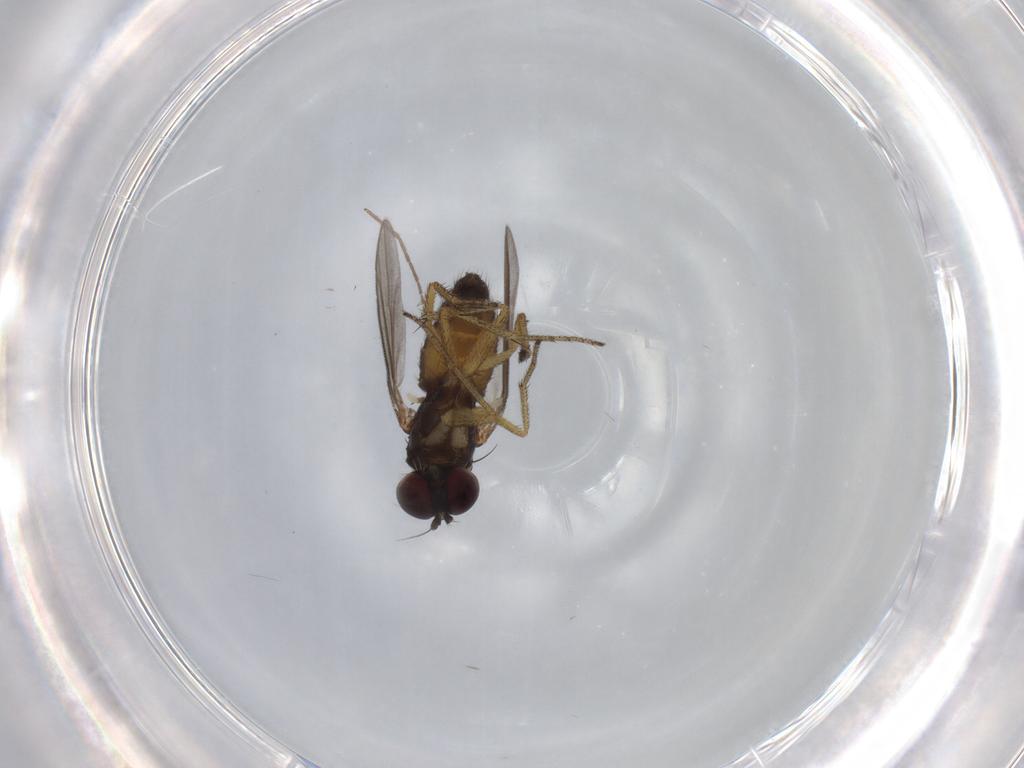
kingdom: Animalia
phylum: Arthropoda
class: Insecta
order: Diptera
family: Dolichopodidae
